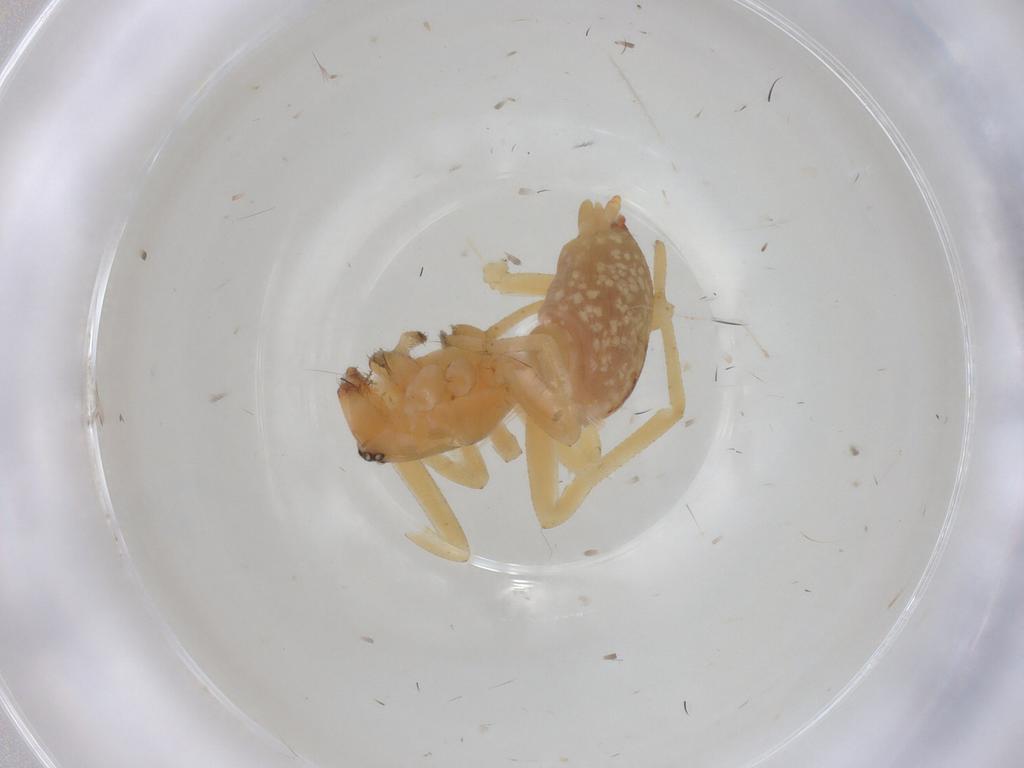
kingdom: Animalia
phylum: Arthropoda
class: Arachnida
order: Araneae
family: Cheiracanthiidae
